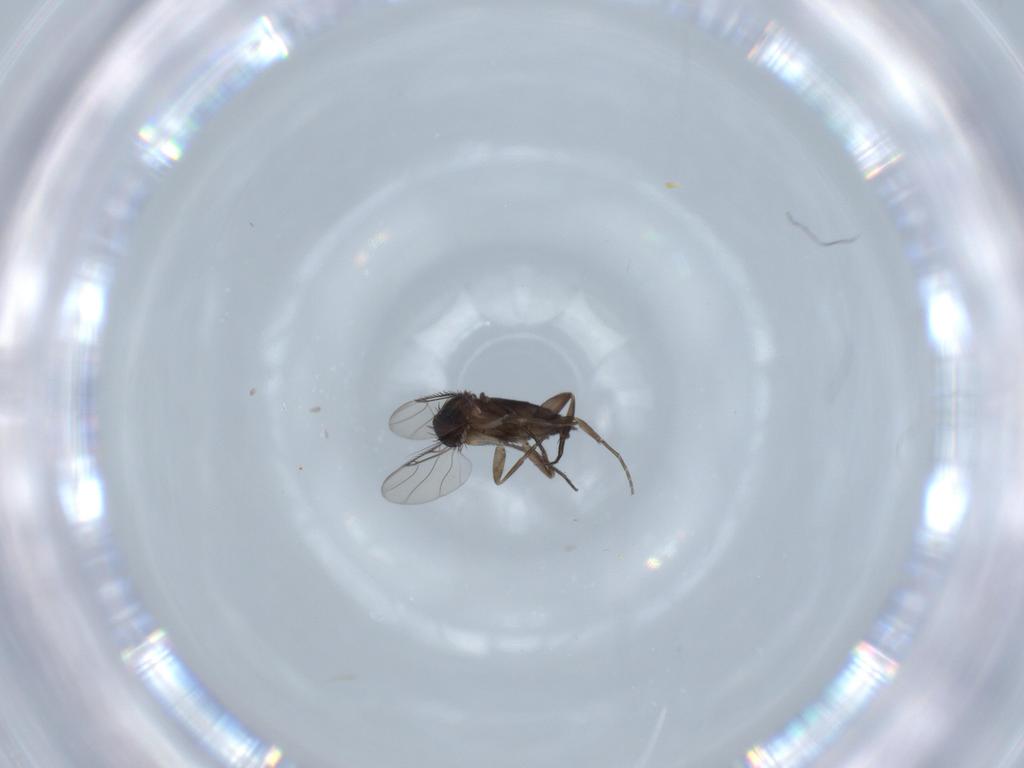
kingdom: Animalia
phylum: Arthropoda
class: Insecta
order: Diptera
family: Phoridae
